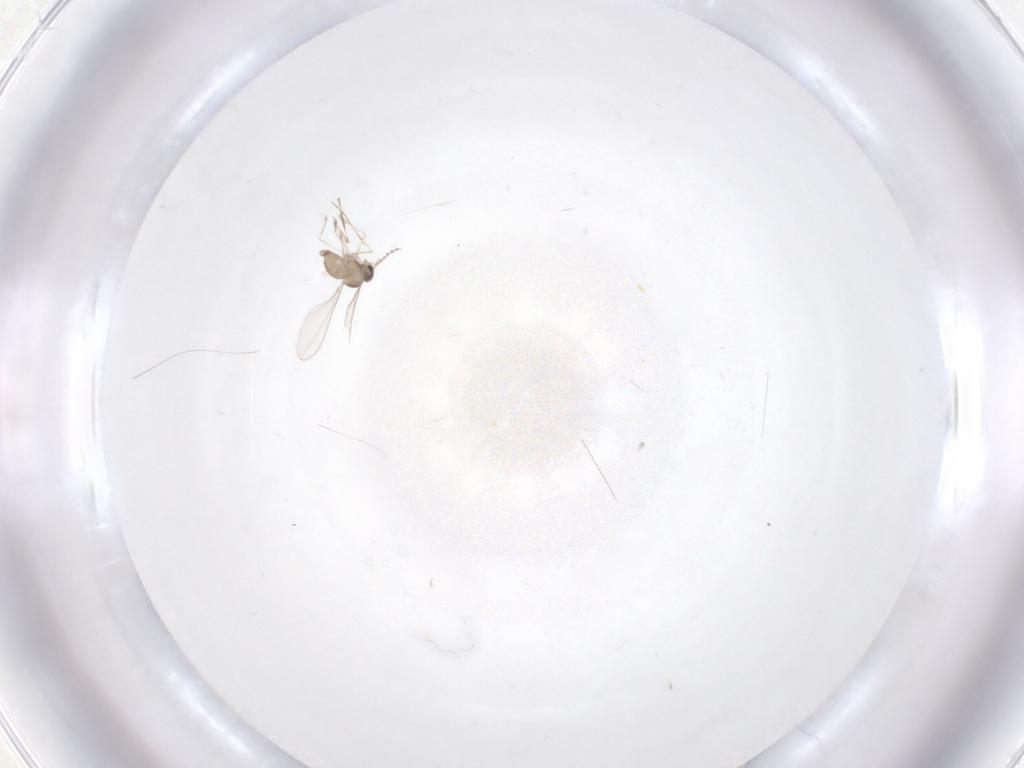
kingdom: Animalia
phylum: Arthropoda
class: Insecta
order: Diptera
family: Cecidomyiidae
